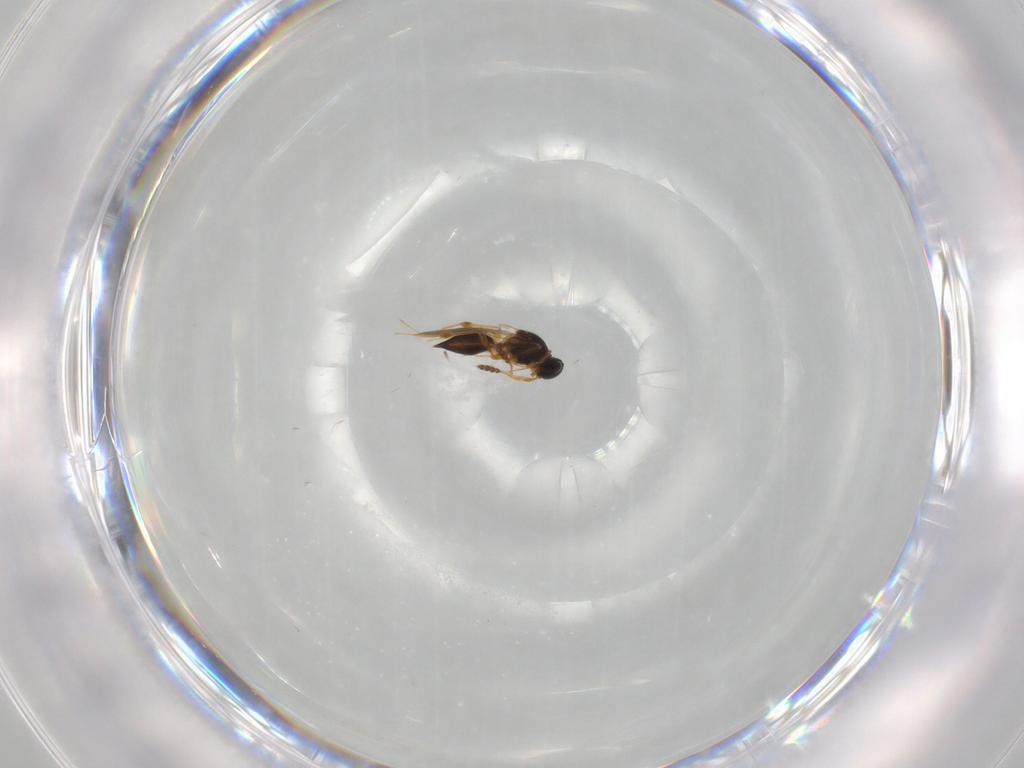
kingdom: Animalia
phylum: Arthropoda
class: Insecta
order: Hymenoptera
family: Platygastridae
